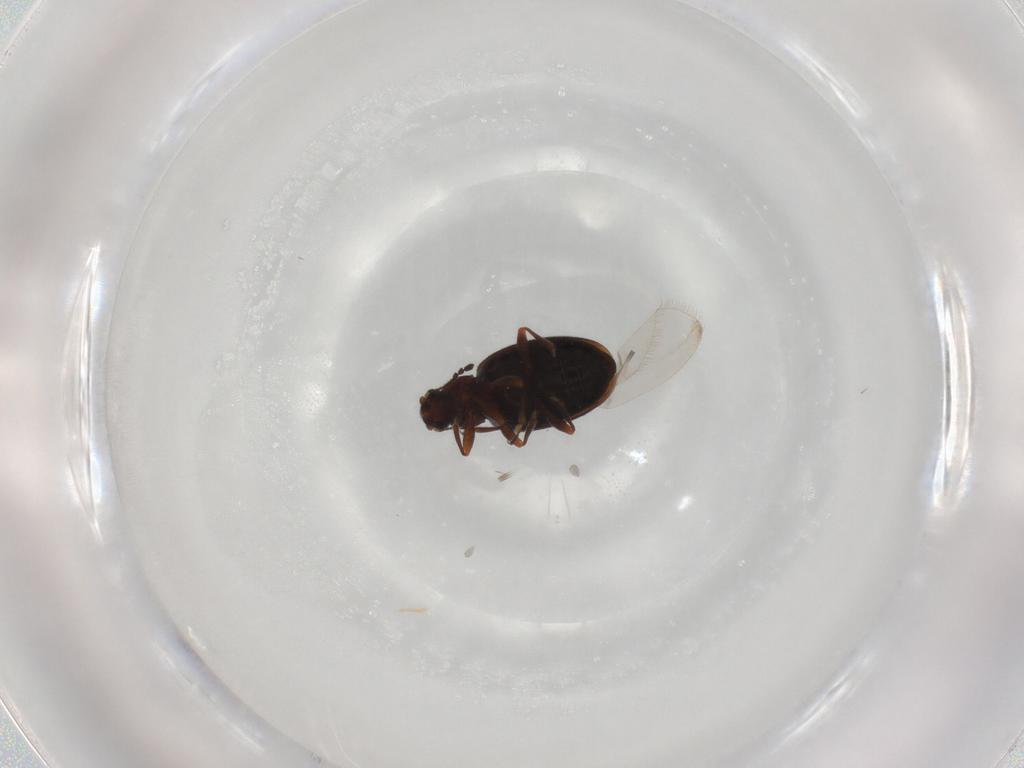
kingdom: Animalia
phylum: Arthropoda
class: Insecta
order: Coleoptera
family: Latridiidae
